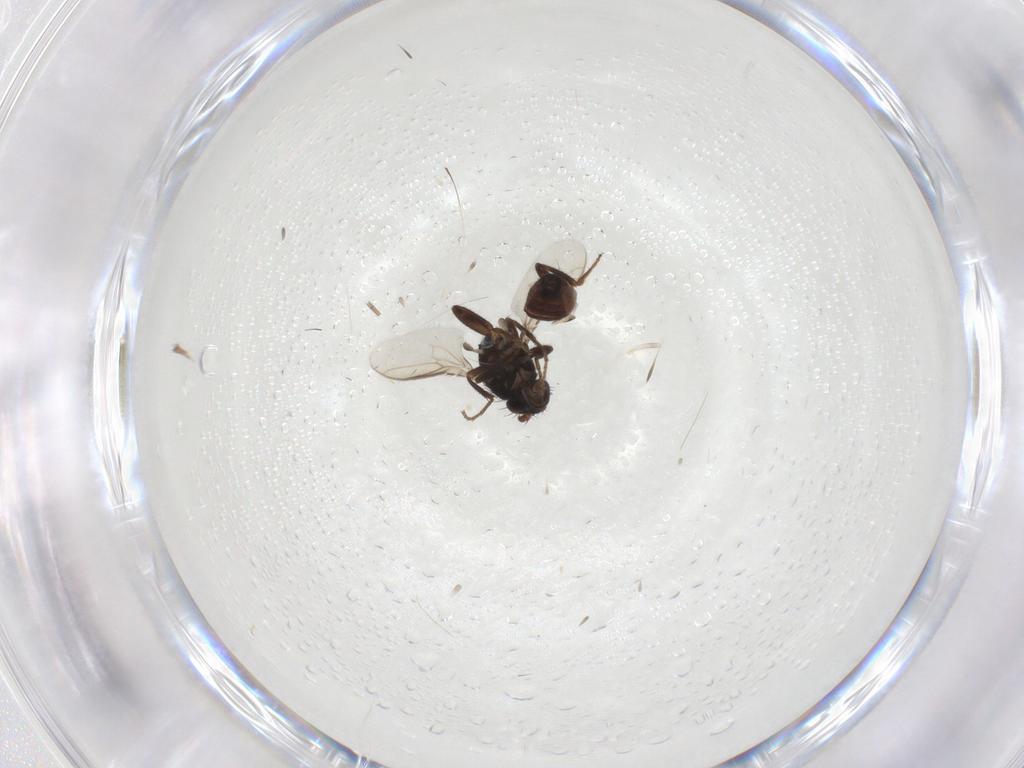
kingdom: Animalia
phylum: Arthropoda
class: Insecta
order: Diptera
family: Sphaeroceridae
